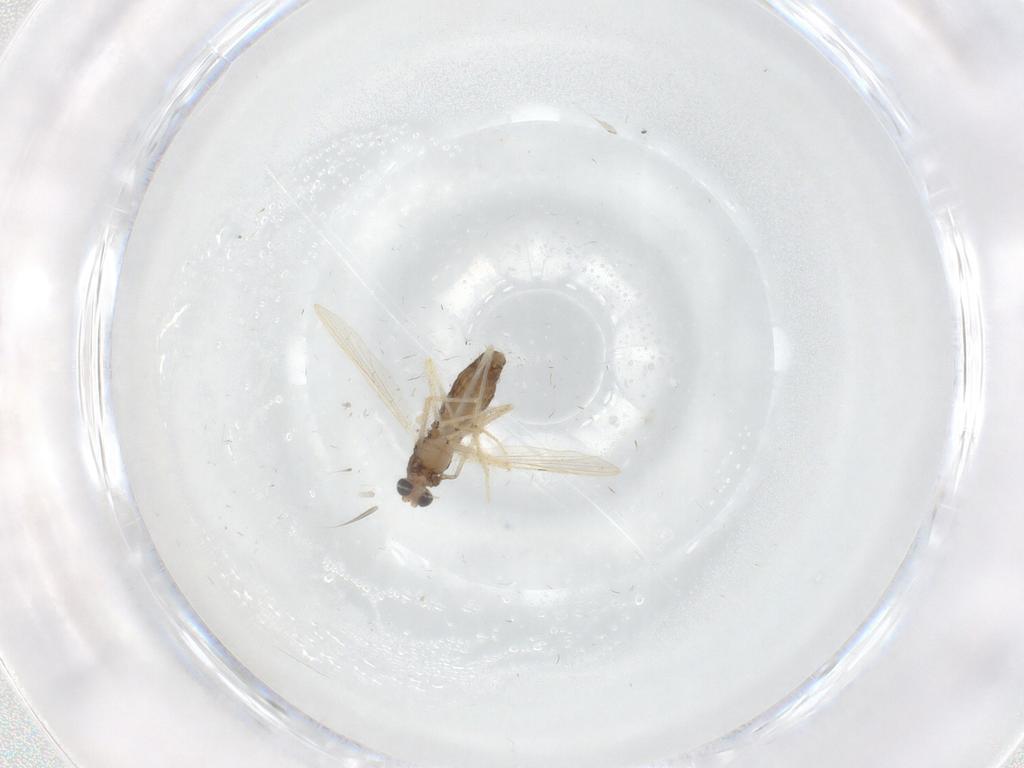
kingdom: Animalia
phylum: Arthropoda
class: Insecta
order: Diptera
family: Chironomidae
